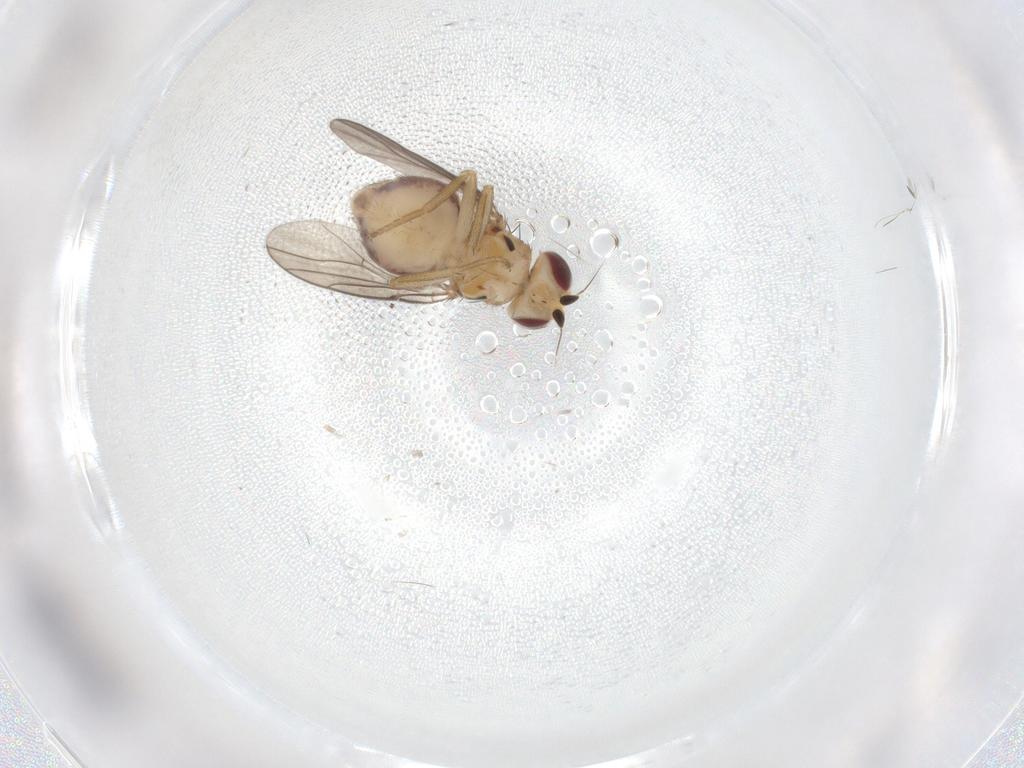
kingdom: Animalia
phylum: Arthropoda
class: Insecta
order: Diptera
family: Chloropidae
